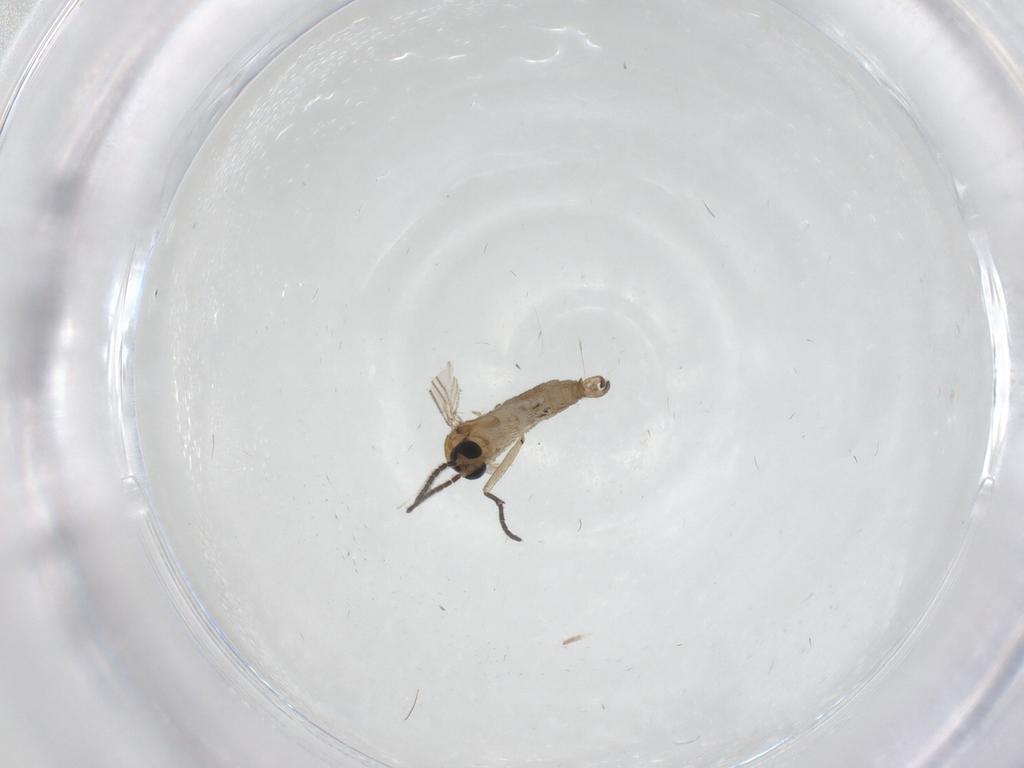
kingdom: Animalia
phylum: Arthropoda
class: Insecta
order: Diptera
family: Sciaridae
